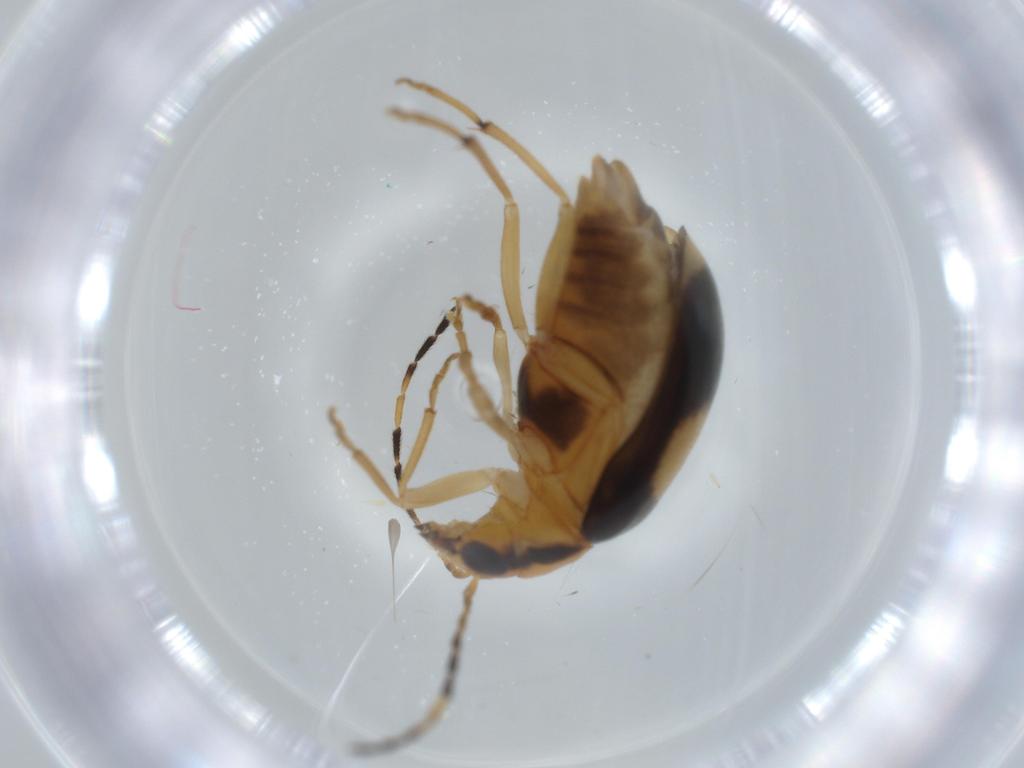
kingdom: Animalia
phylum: Arthropoda
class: Insecta
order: Coleoptera
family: Chrysomelidae
